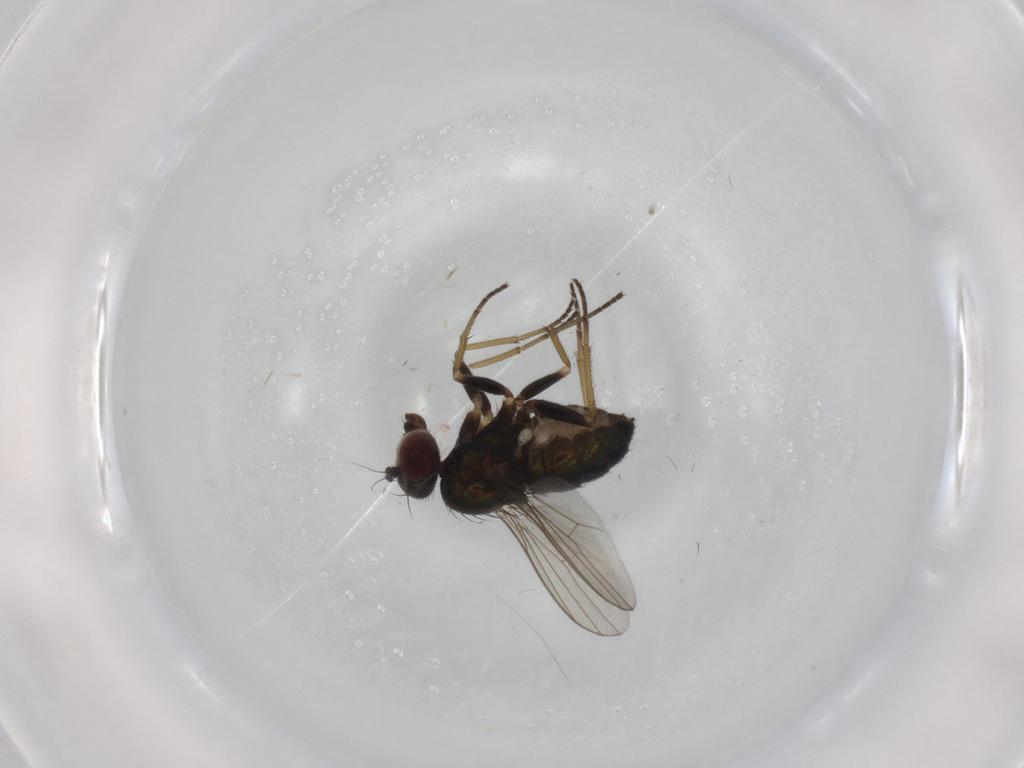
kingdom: Animalia
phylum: Arthropoda
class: Insecta
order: Diptera
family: Dolichopodidae
